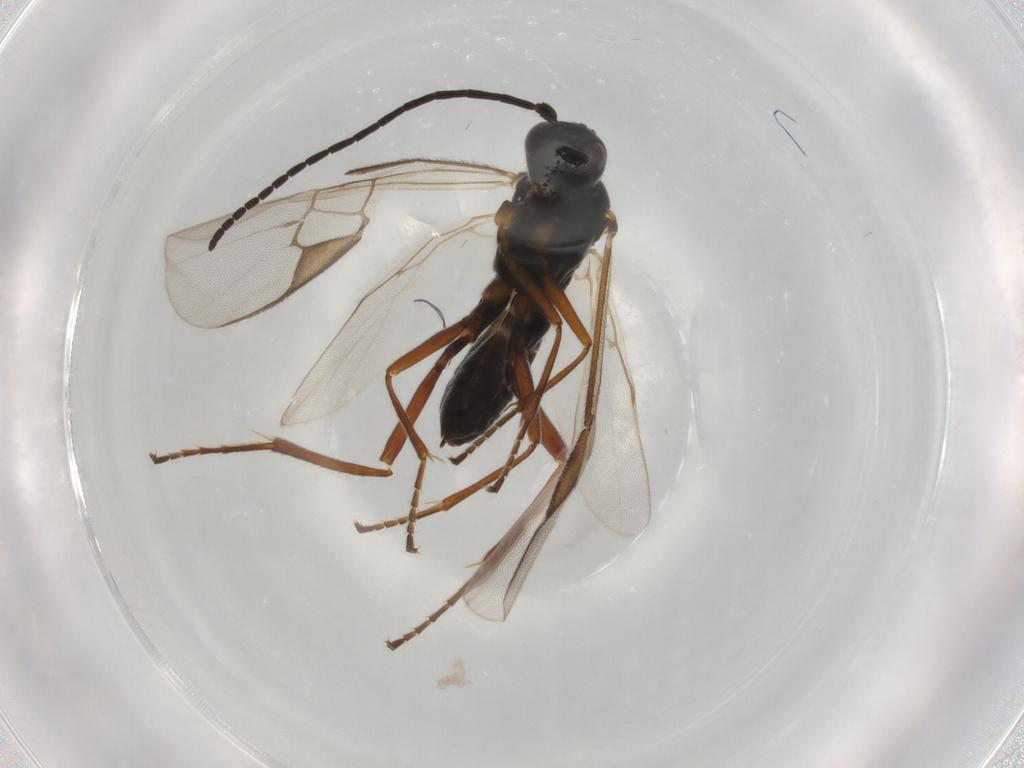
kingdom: Animalia
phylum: Arthropoda
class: Insecta
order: Hymenoptera
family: Braconidae
